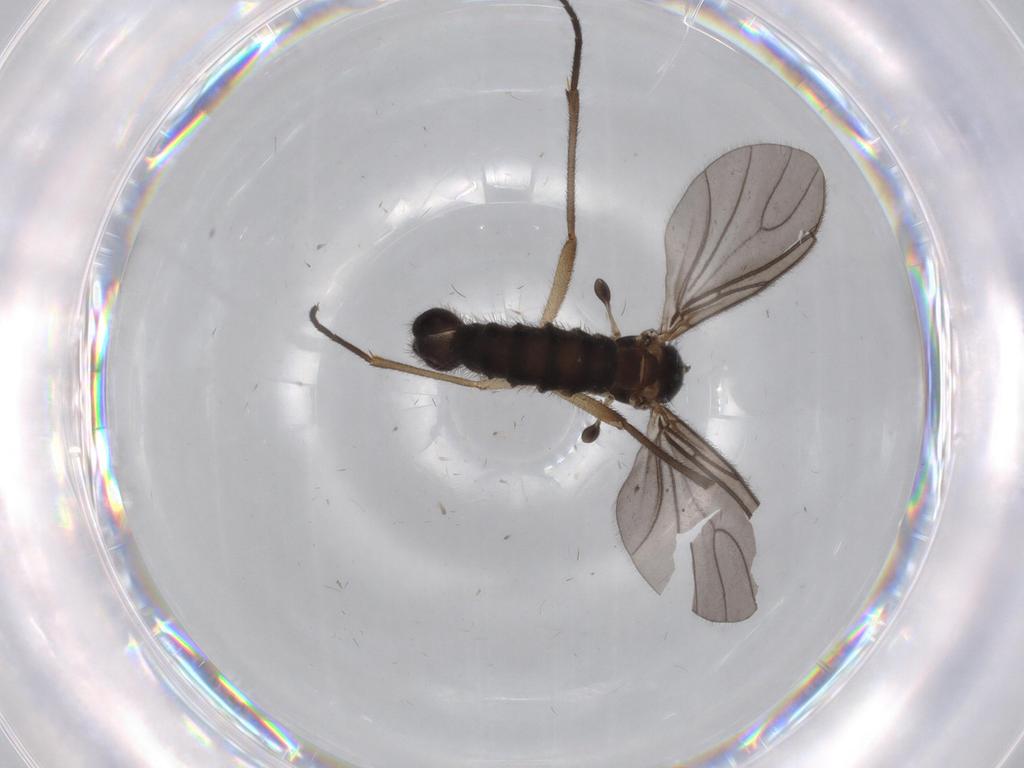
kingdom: Animalia
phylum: Arthropoda
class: Insecta
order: Diptera
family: Sciaridae
